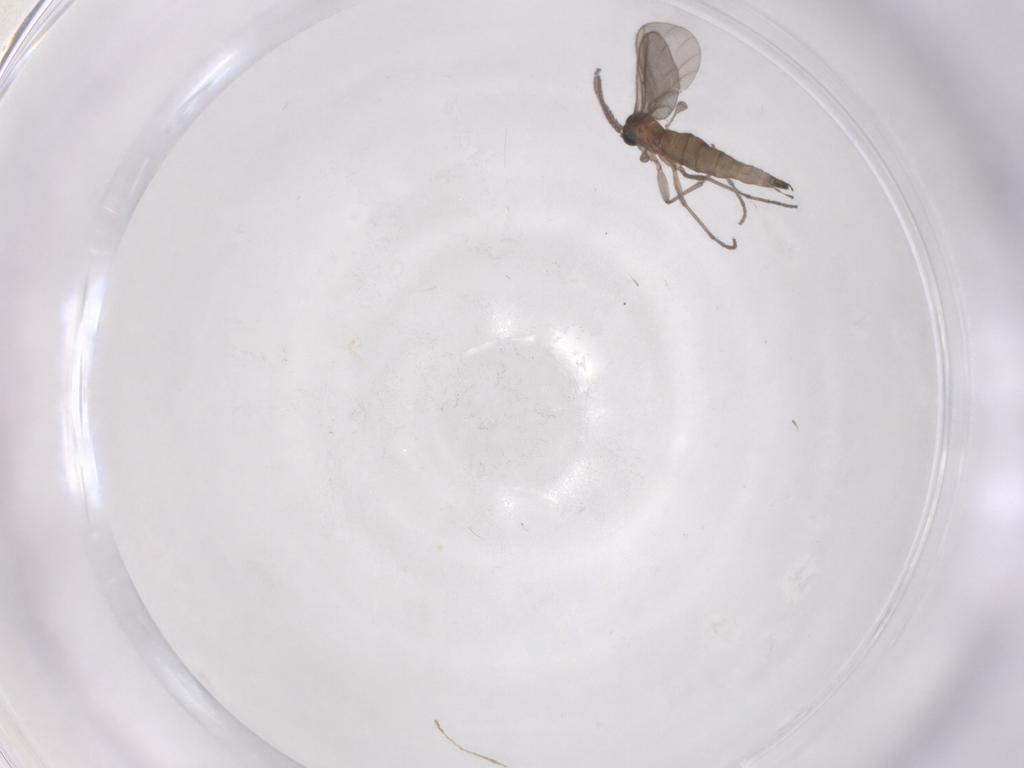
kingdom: Animalia
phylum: Arthropoda
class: Insecta
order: Diptera
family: Sciaridae
